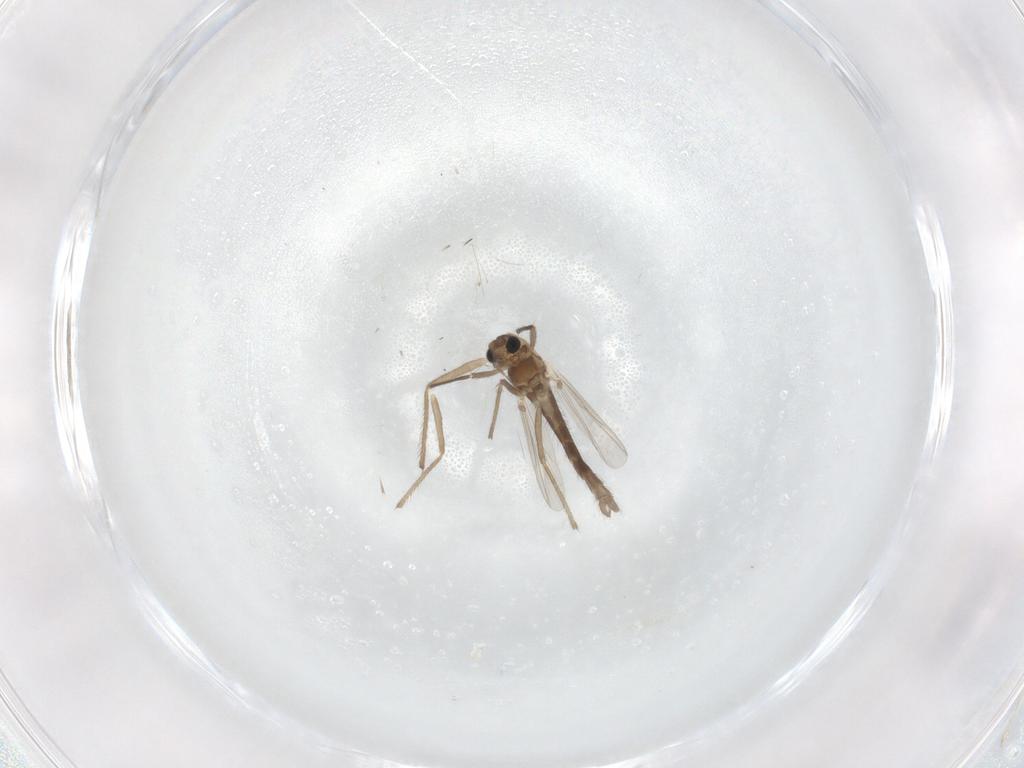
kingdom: Animalia
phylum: Arthropoda
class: Insecta
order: Diptera
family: Chironomidae
